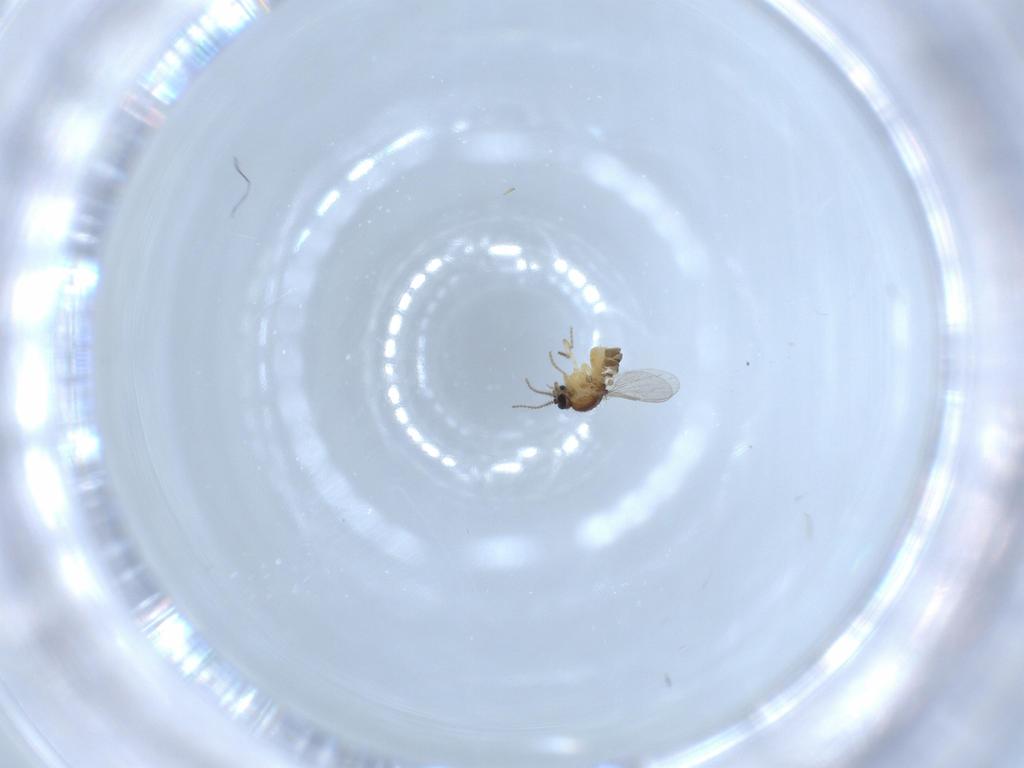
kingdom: Animalia
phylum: Arthropoda
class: Insecta
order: Diptera
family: Ceratopogonidae
